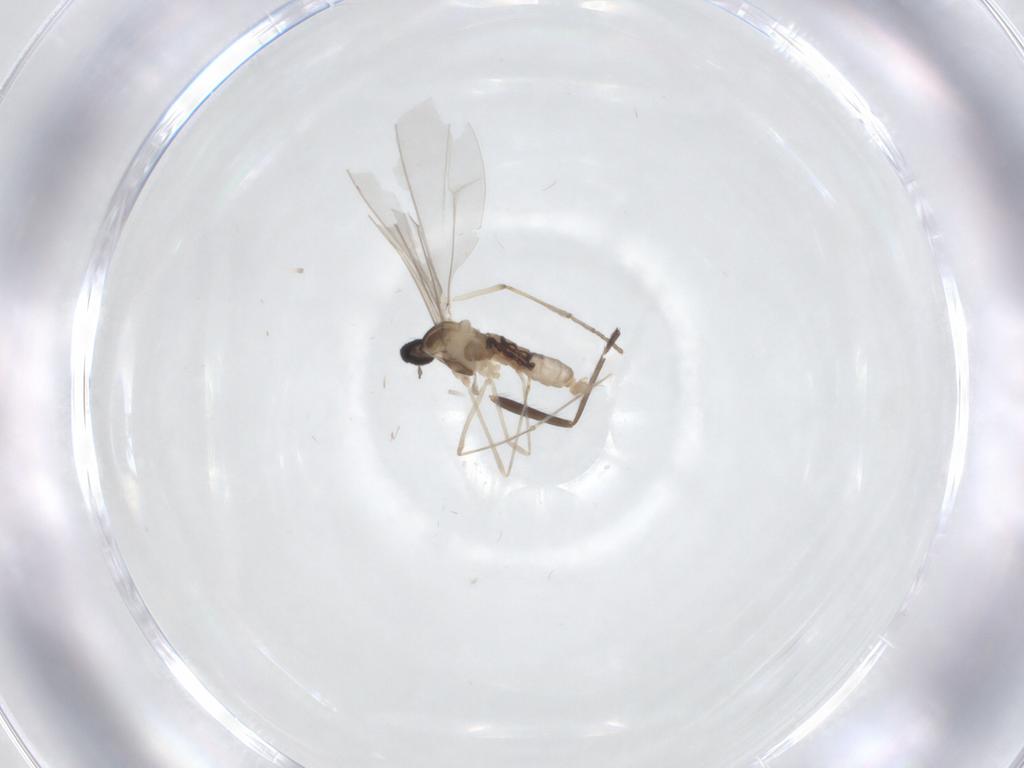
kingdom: Animalia
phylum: Arthropoda
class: Insecta
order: Diptera
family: Chironomidae
